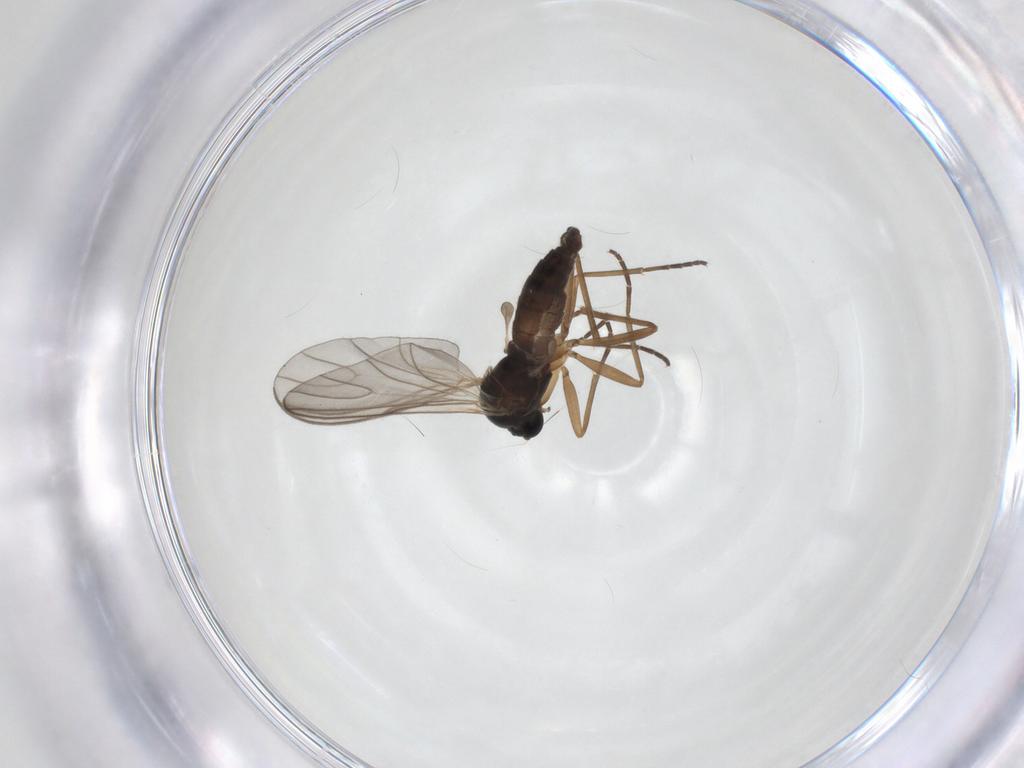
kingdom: Animalia
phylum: Arthropoda
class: Insecta
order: Diptera
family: Sciaridae
